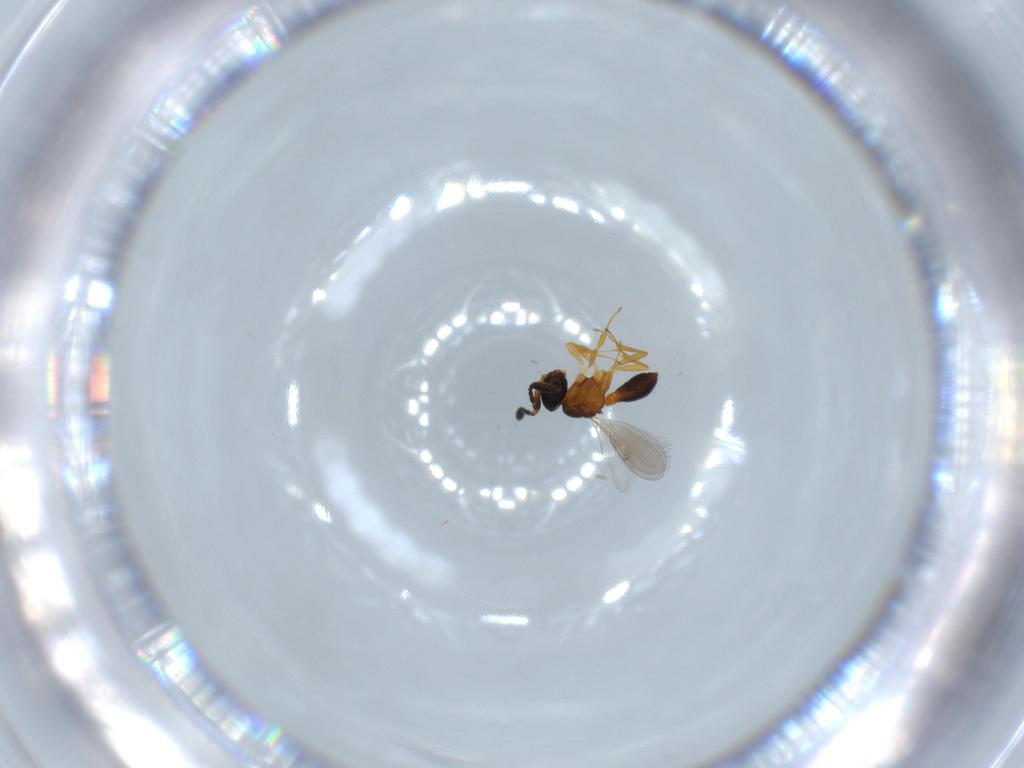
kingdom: Animalia
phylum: Arthropoda
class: Insecta
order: Hymenoptera
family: Scelionidae
